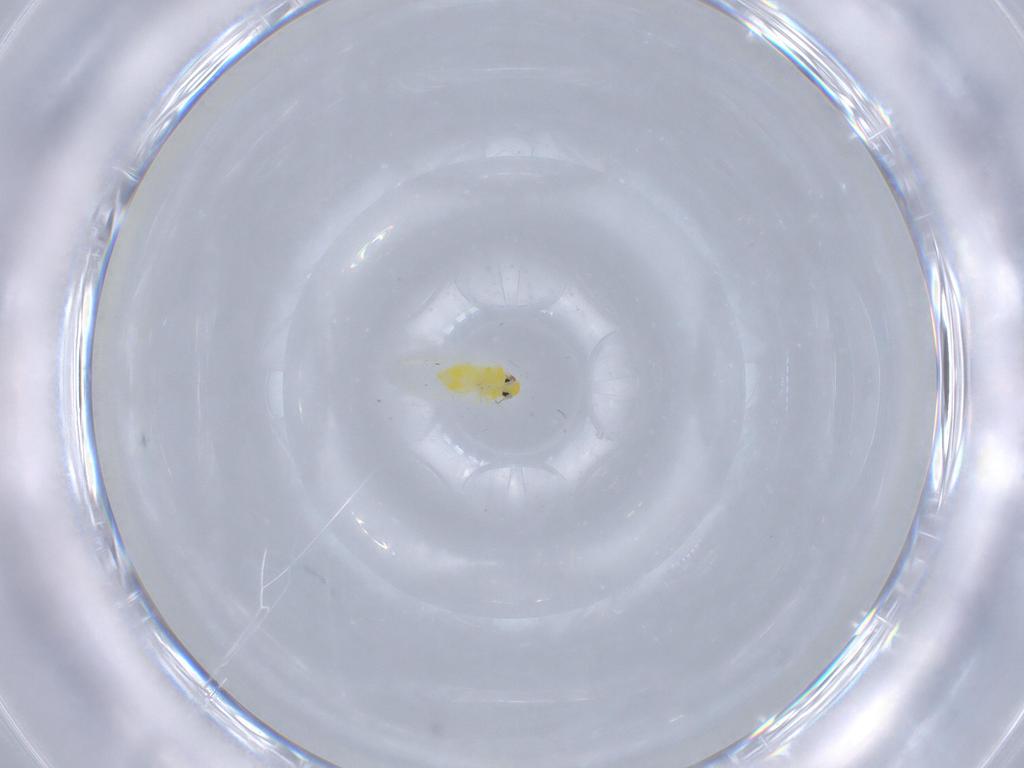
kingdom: Animalia
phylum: Arthropoda
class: Insecta
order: Hemiptera
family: Aleyrodidae
